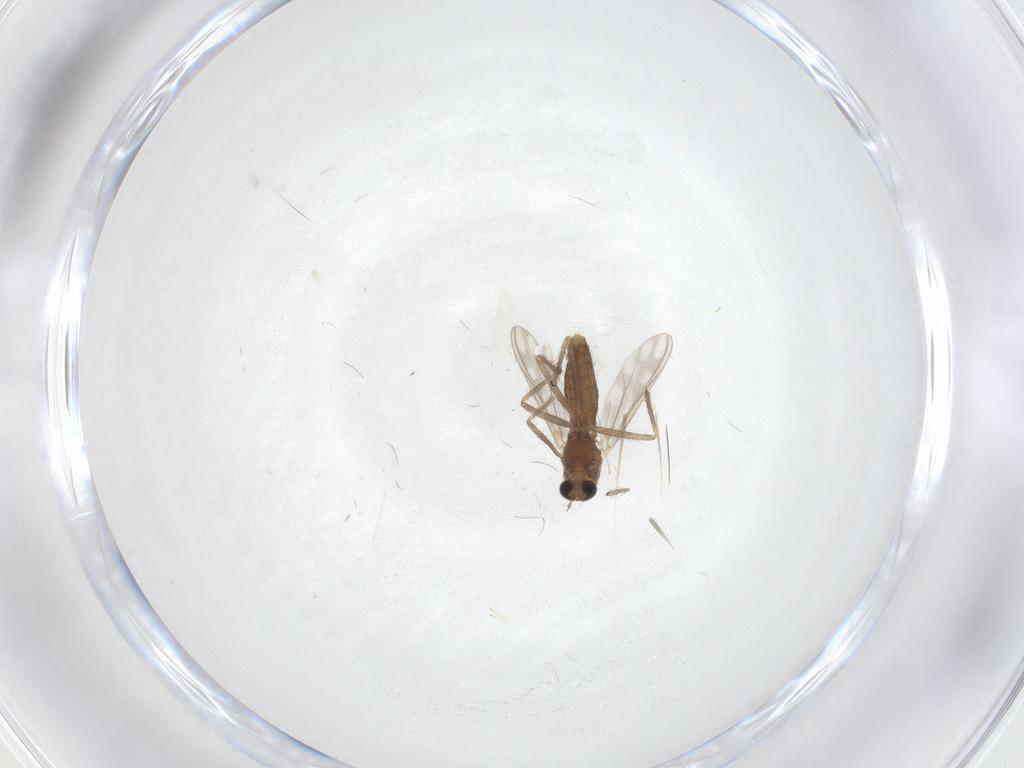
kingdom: Animalia
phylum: Arthropoda
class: Insecta
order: Diptera
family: Chironomidae
